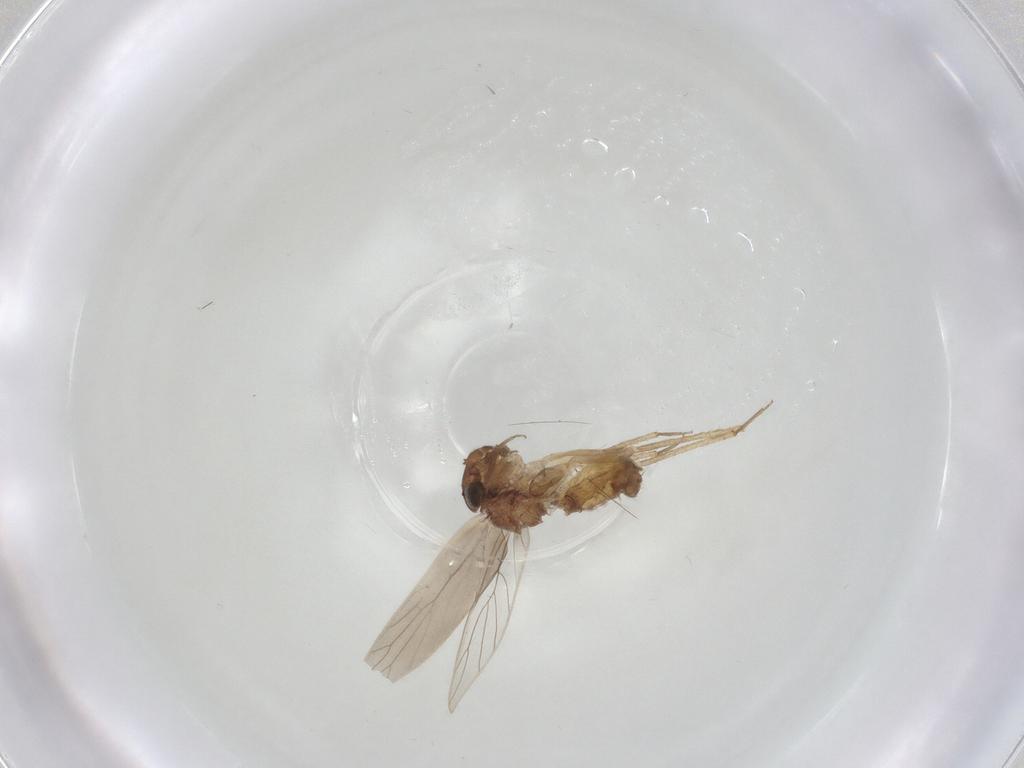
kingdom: Animalia
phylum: Arthropoda
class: Insecta
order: Psocodea
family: Lepidopsocidae
